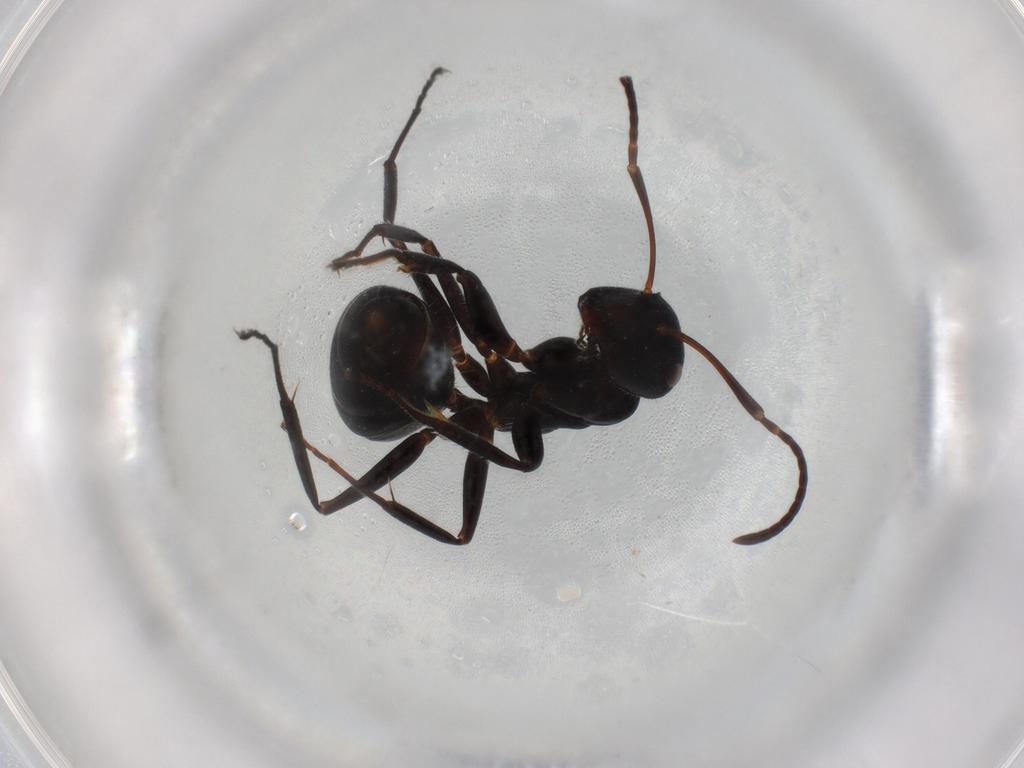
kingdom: Animalia
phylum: Arthropoda
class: Insecta
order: Hymenoptera
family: Formicidae
